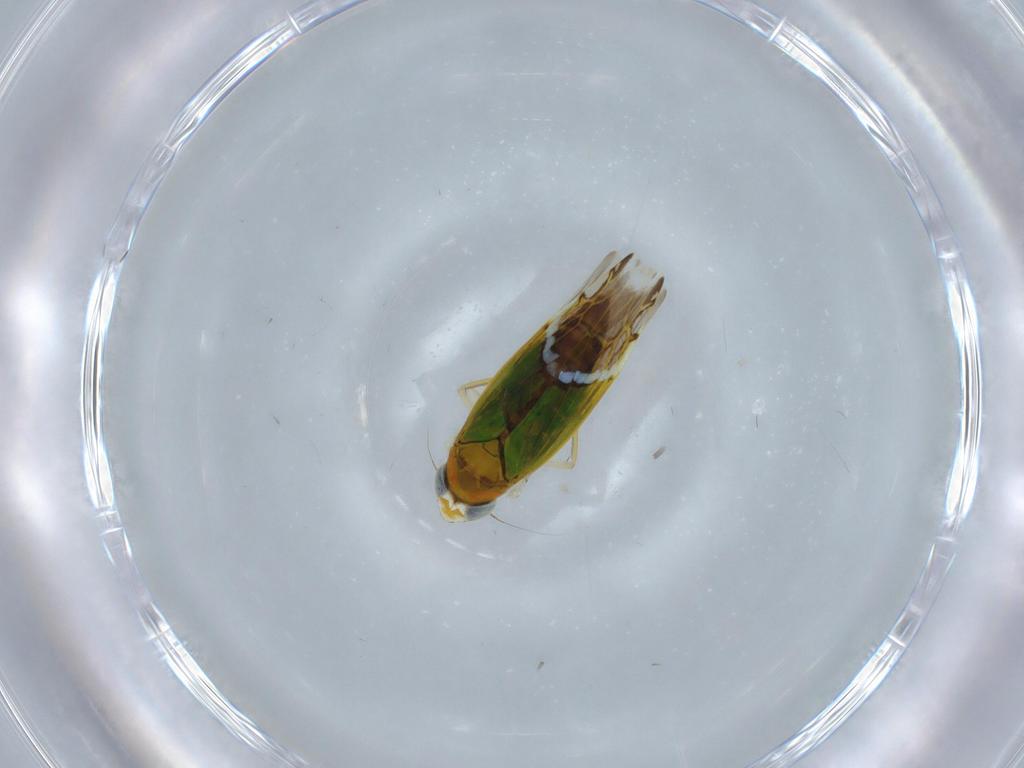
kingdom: Animalia
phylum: Arthropoda
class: Insecta
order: Hemiptera
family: Cicadellidae
